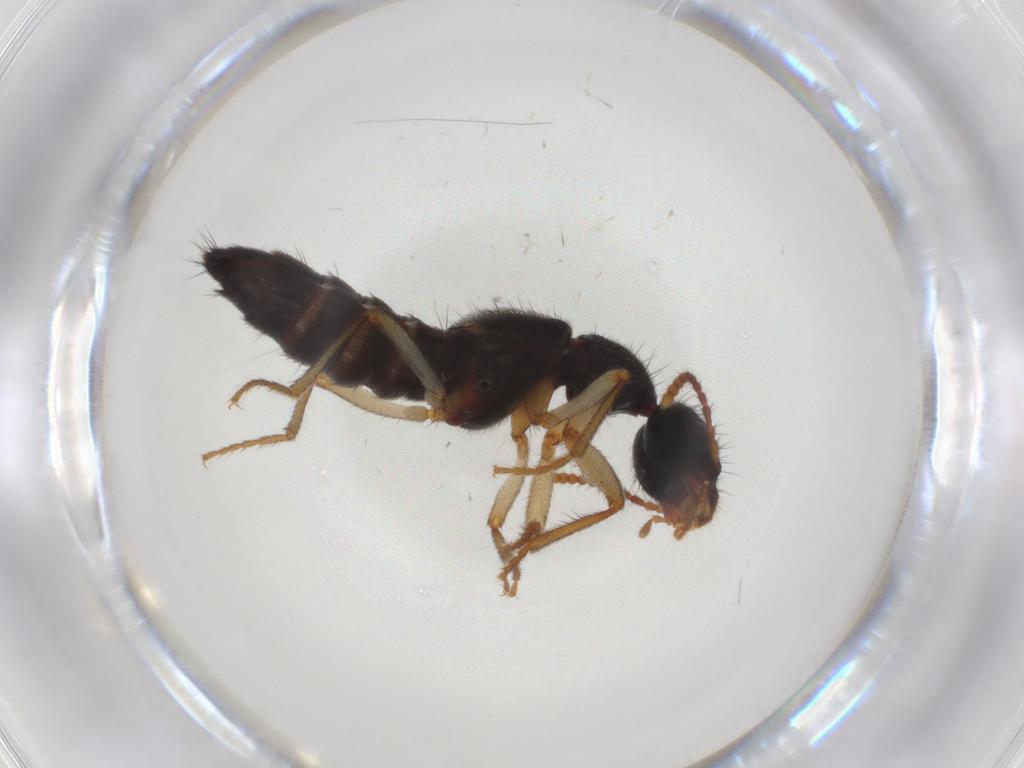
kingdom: Animalia
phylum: Arthropoda
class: Insecta
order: Coleoptera
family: Staphylinidae
